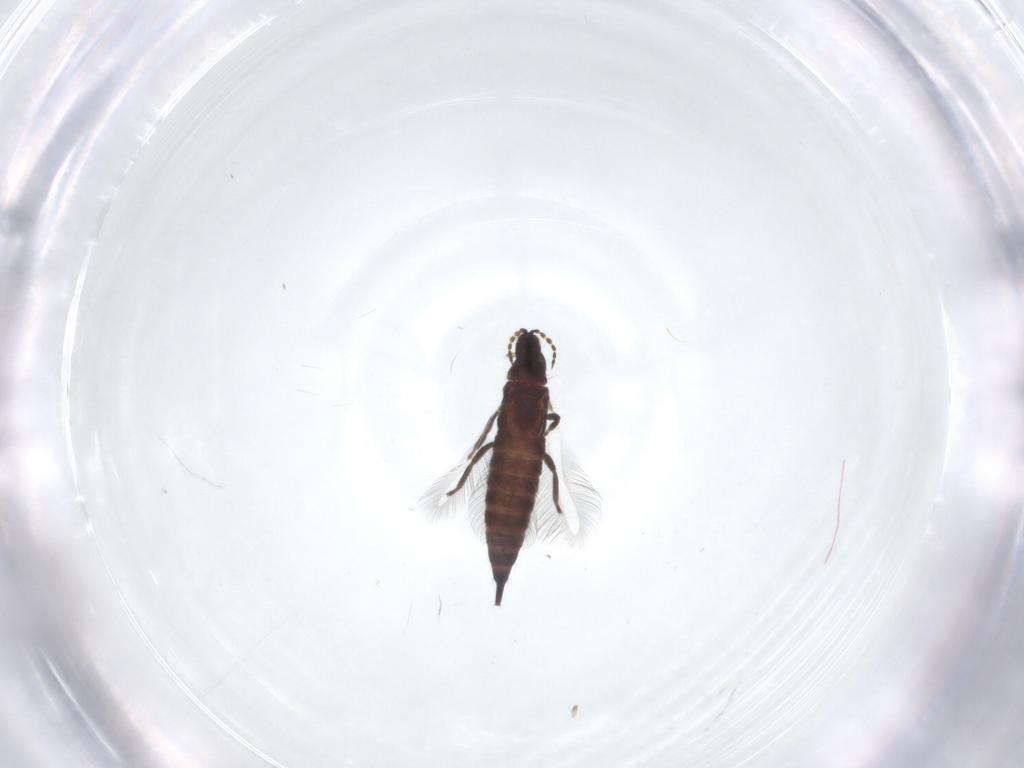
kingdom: Animalia
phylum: Arthropoda
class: Insecta
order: Thysanoptera
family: Phlaeothripidae
